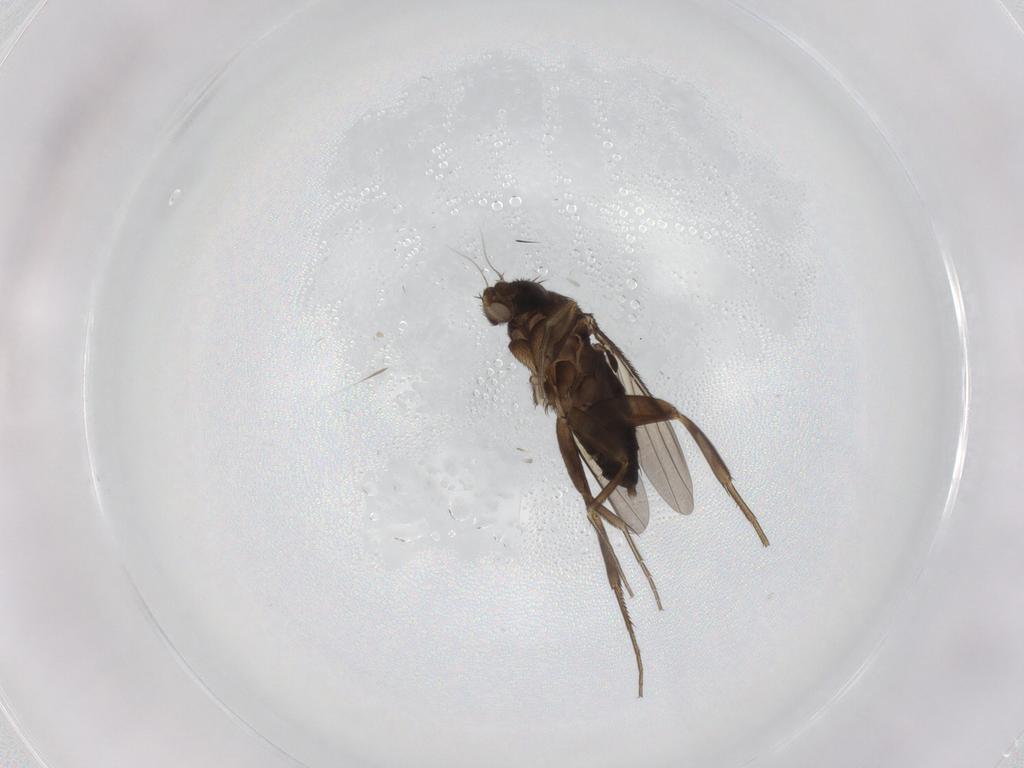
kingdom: Animalia
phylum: Arthropoda
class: Insecta
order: Diptera
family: Phoridae
